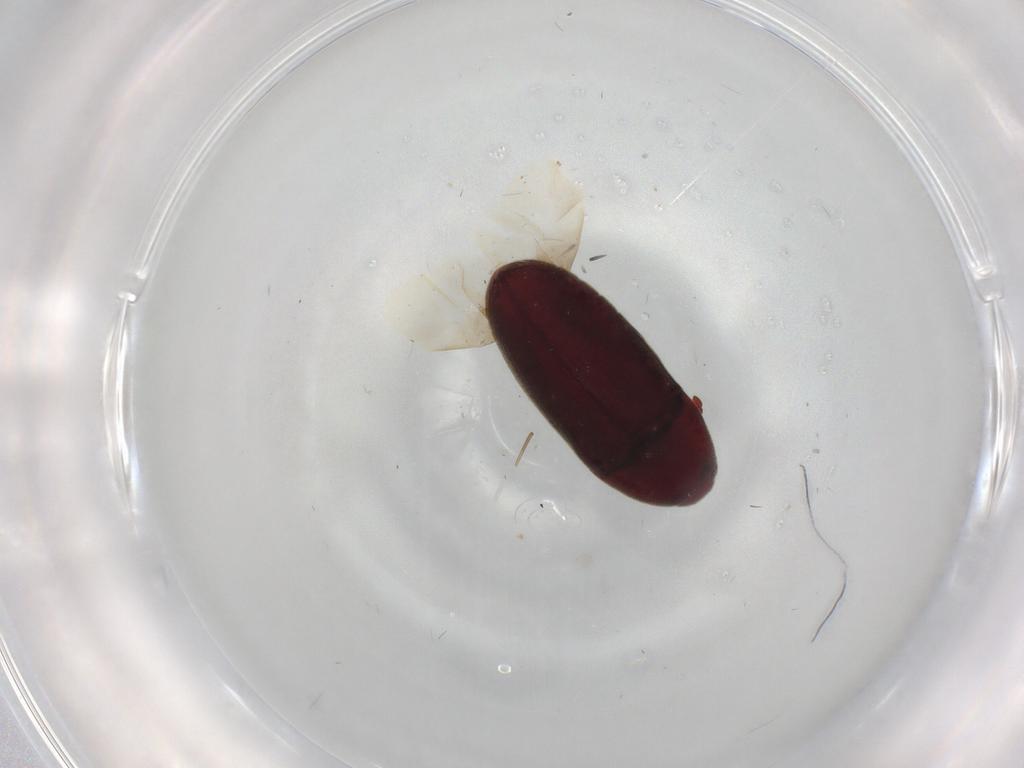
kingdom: Animalia
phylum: Arthropoda
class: Insecta
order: Coleoptera
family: Throscidae
